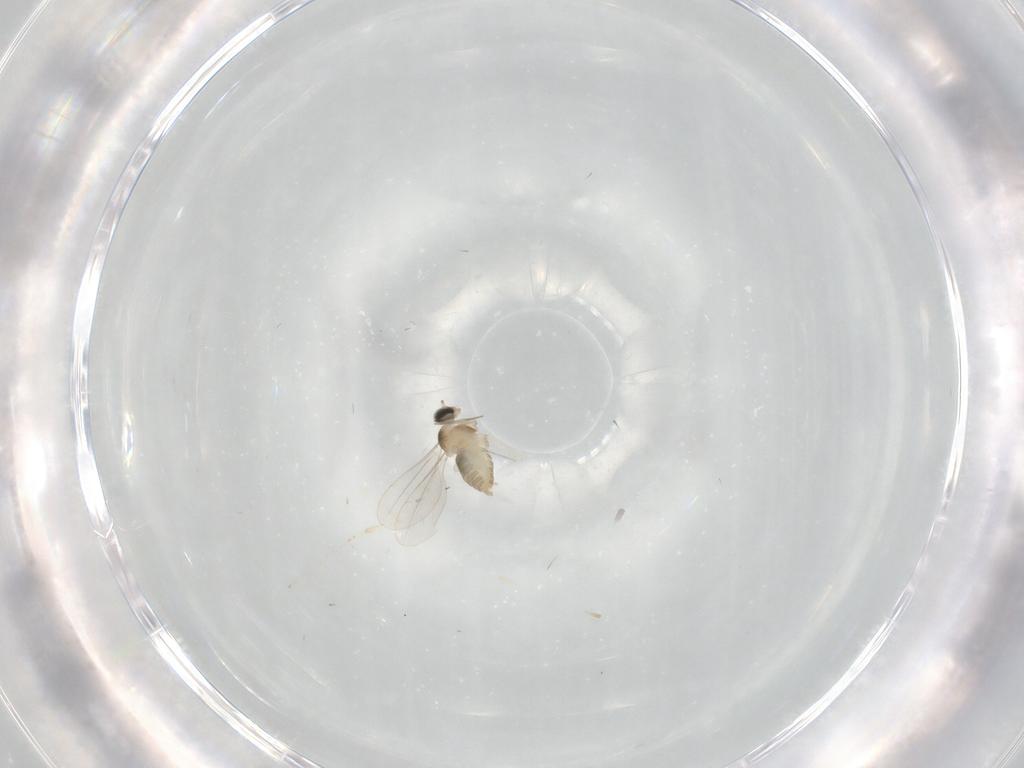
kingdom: Animalia
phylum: Arthropoda
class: Insecta
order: Diptera
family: Cecidomyiidae
